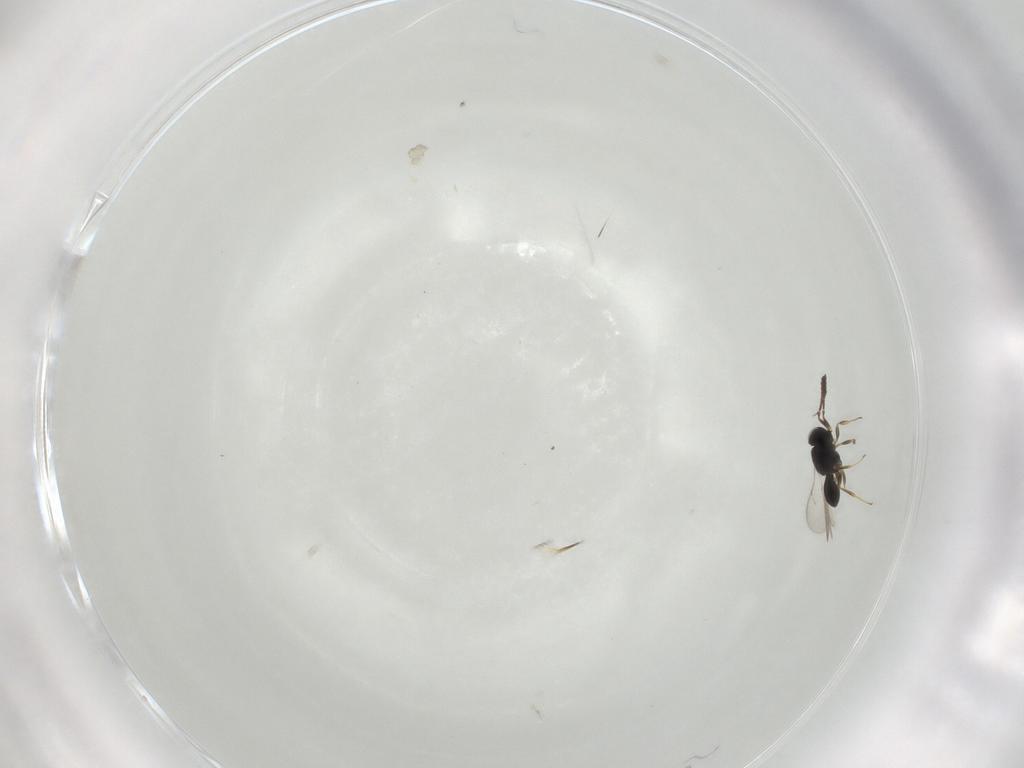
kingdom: Animalia
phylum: Arthropoda
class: Insecta
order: Hymenoptera
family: Scelionidae
